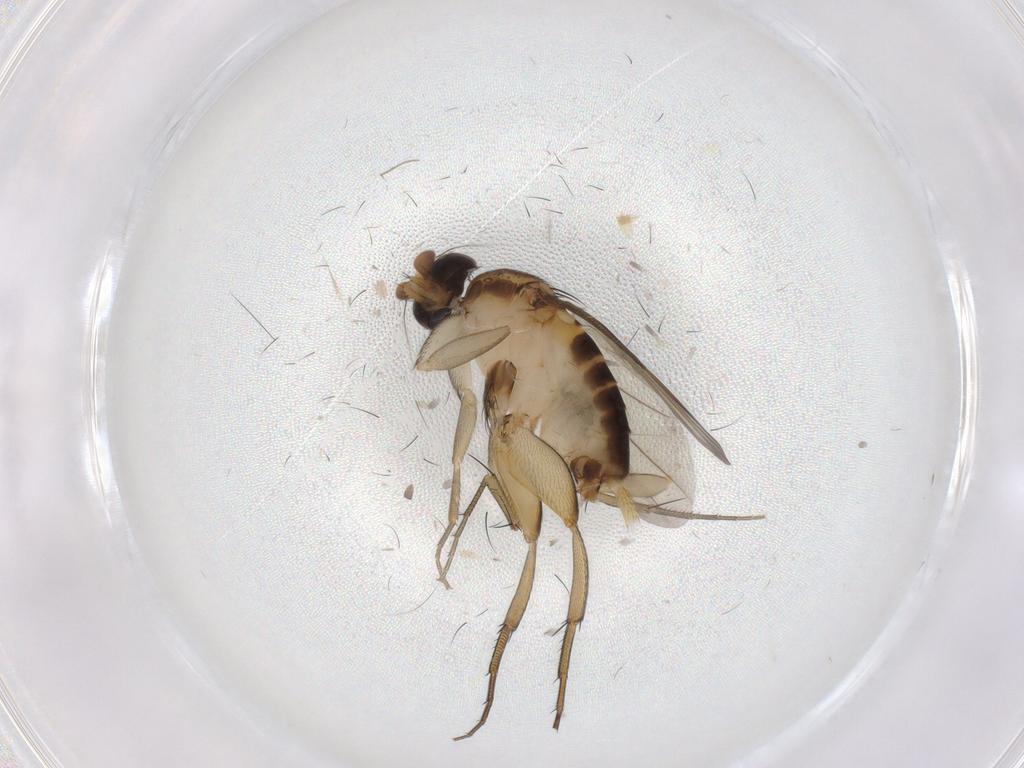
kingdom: Animalia
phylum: Arthropoda
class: Insecta
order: Diptera
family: Phoridae
